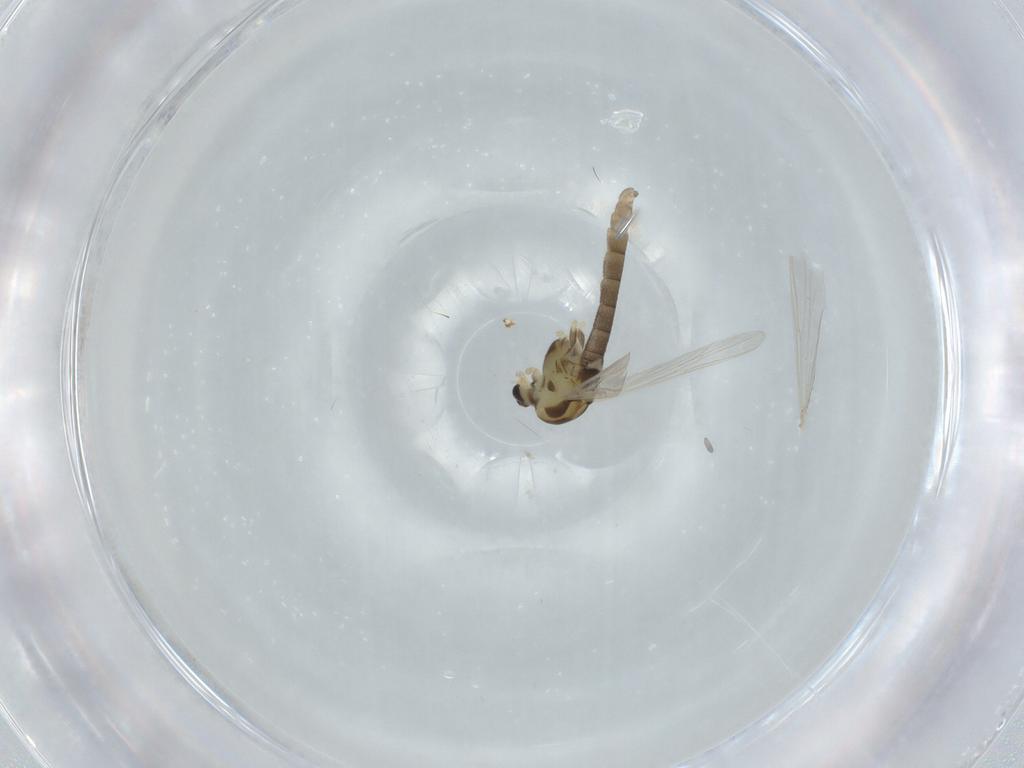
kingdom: Animalia
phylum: Arthropoda
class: Insecta
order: Diptera
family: Chironomidae
